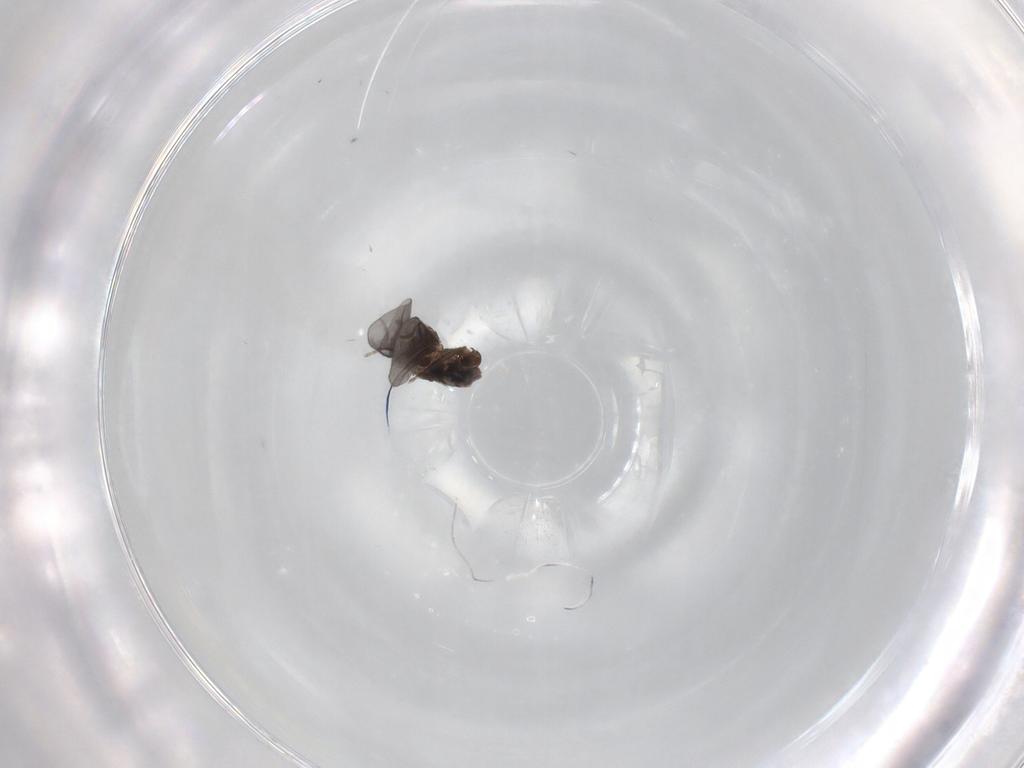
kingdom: Animalia
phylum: Arthropoda
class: Insecta
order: Diptera
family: Phoridae
